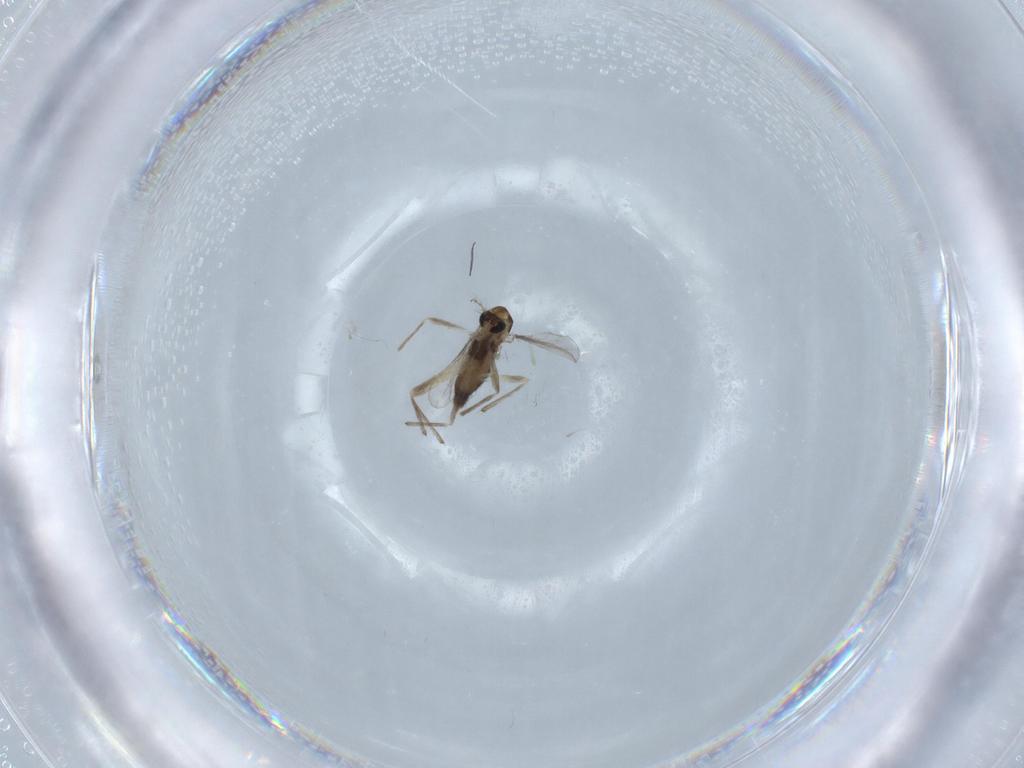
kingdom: Animalia
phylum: Arthropoda
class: Insecta
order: Diptera
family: Chironomidae
